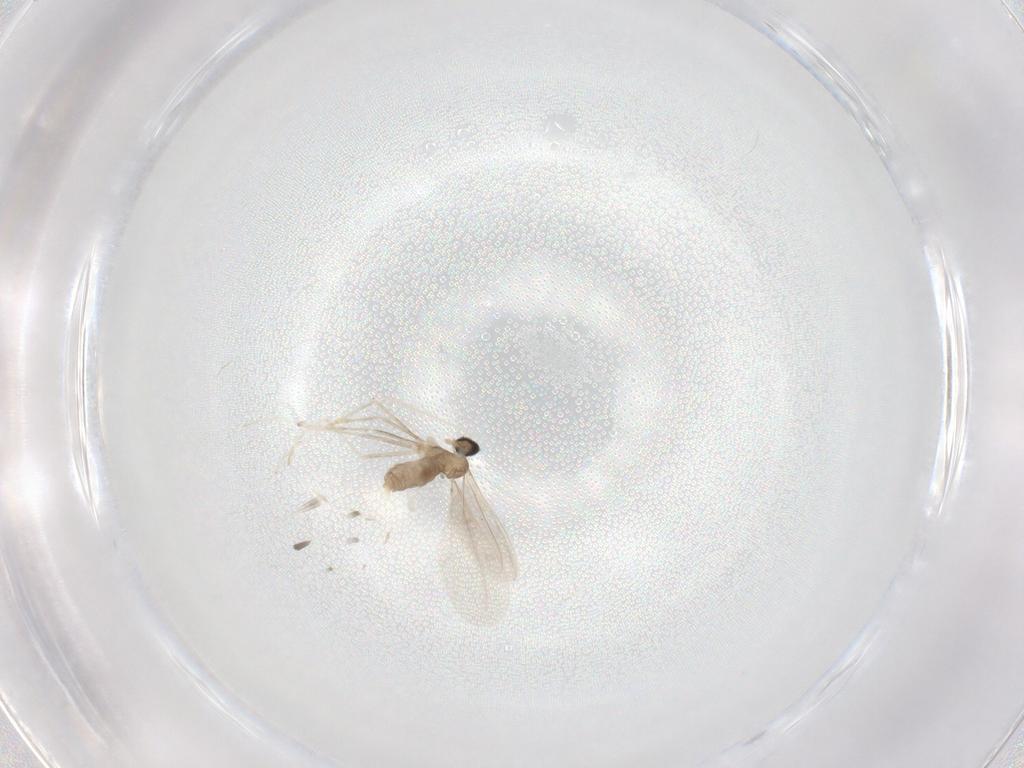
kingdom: Animalia
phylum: Arthropoda
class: Insecta
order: Diptera
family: Cecidomyiidae
